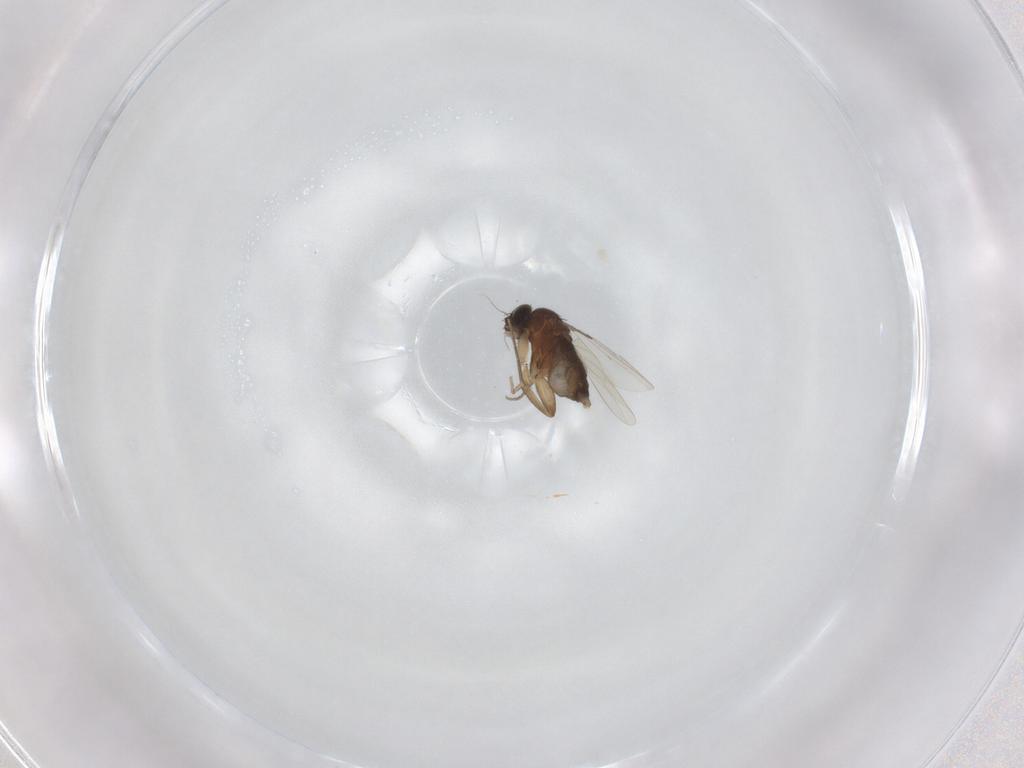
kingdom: Animalia
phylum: Arthropoda
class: Insecta
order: Diptera
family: Phoridae
